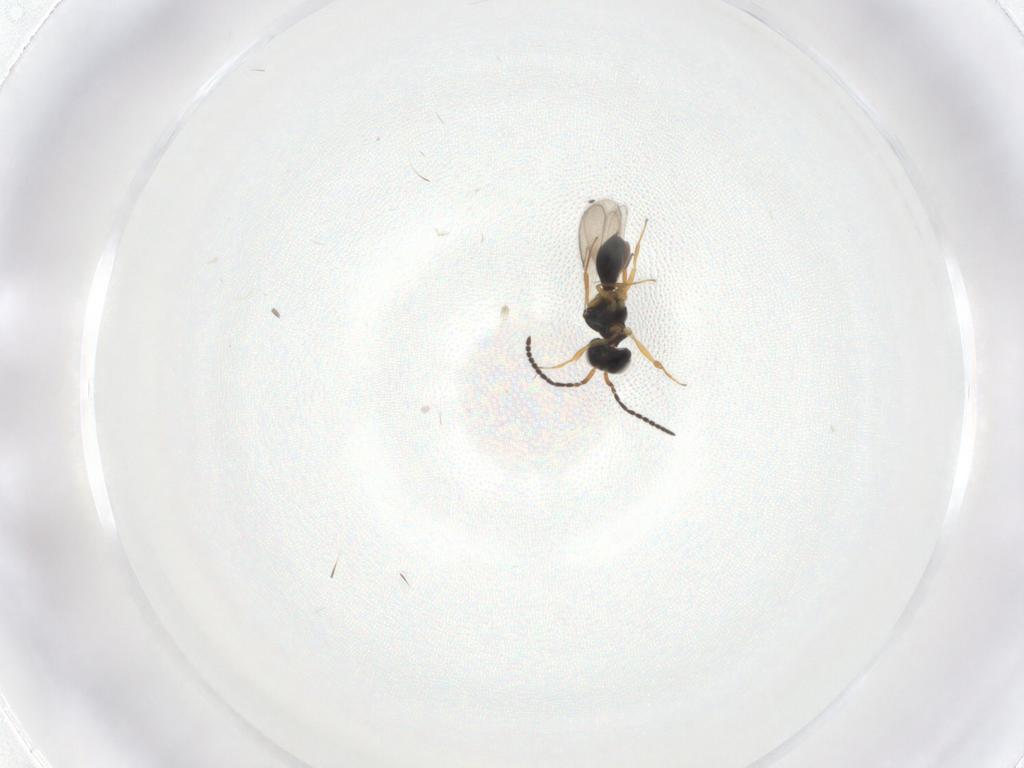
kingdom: Animalia
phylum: Arthropoda
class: Insecta
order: Hymenoptera
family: Scelionidae
